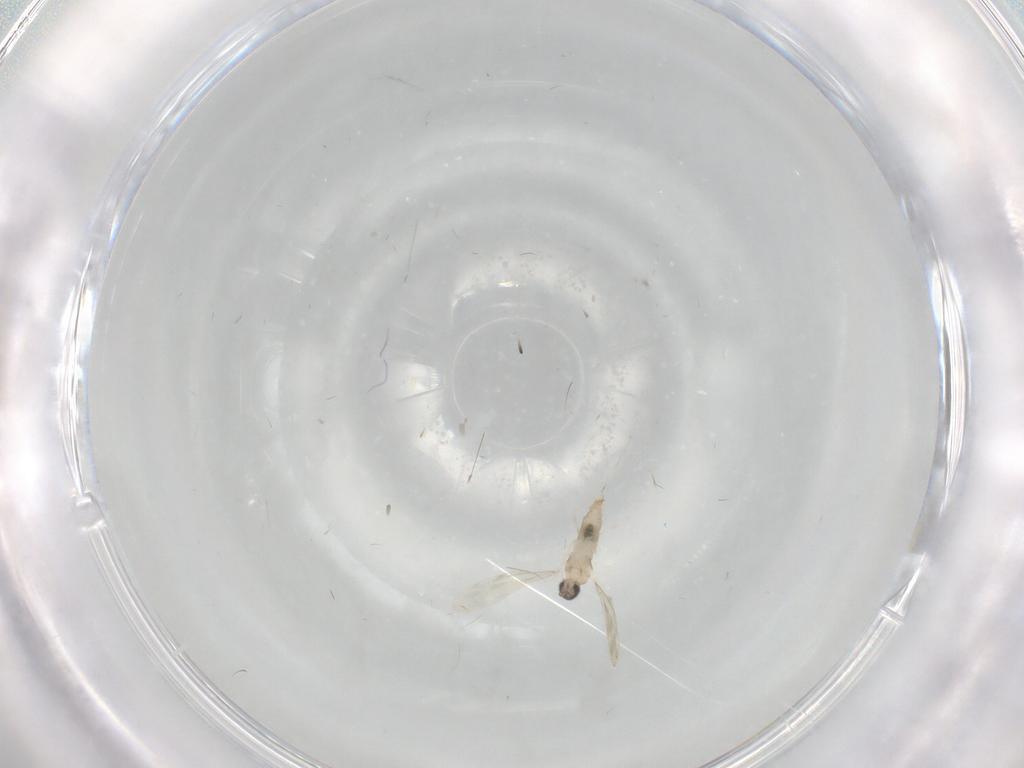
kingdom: Animalia
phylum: Arthropoda
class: Insecta
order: Diptera
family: Cecidomyiidae
